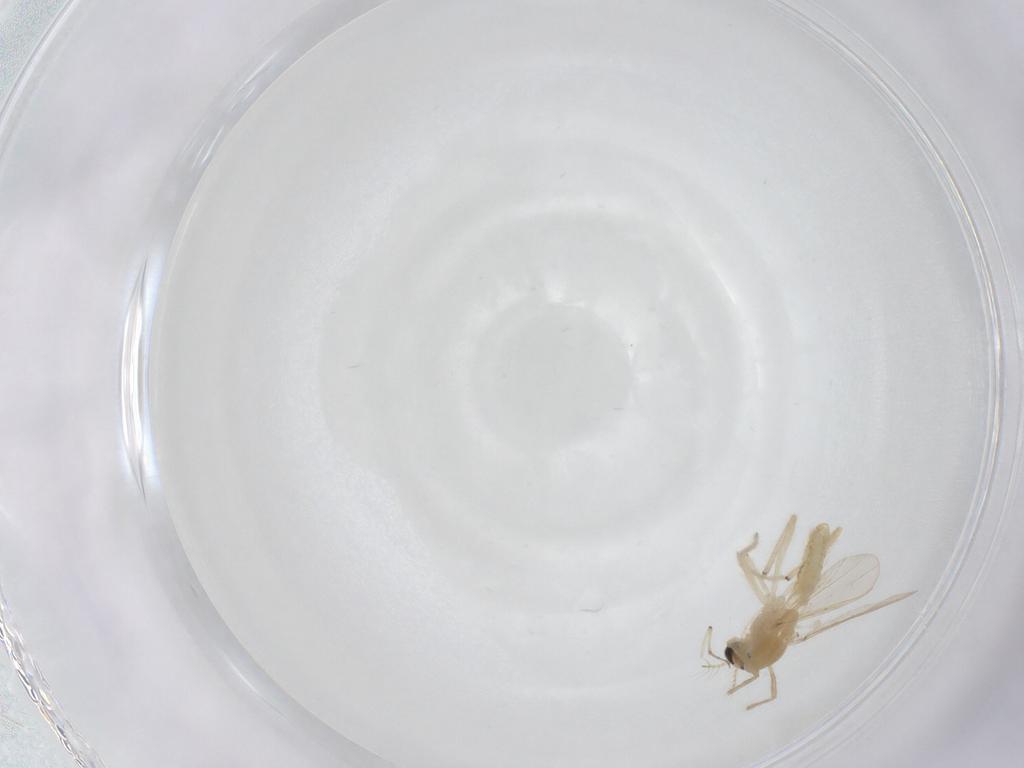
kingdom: Animalia
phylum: Arthropoda
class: Insecta
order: Diptera
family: Chironomidae
